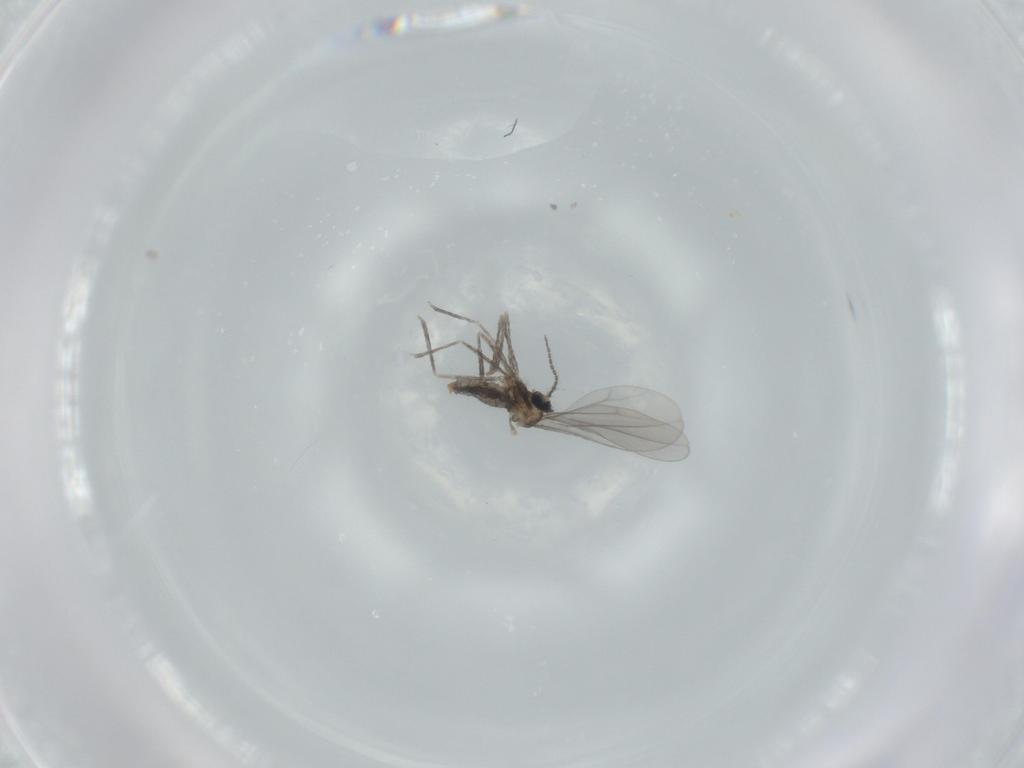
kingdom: Animalia
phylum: Arthropoda
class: Insecta
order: Diptera
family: Cecidomyiidae
